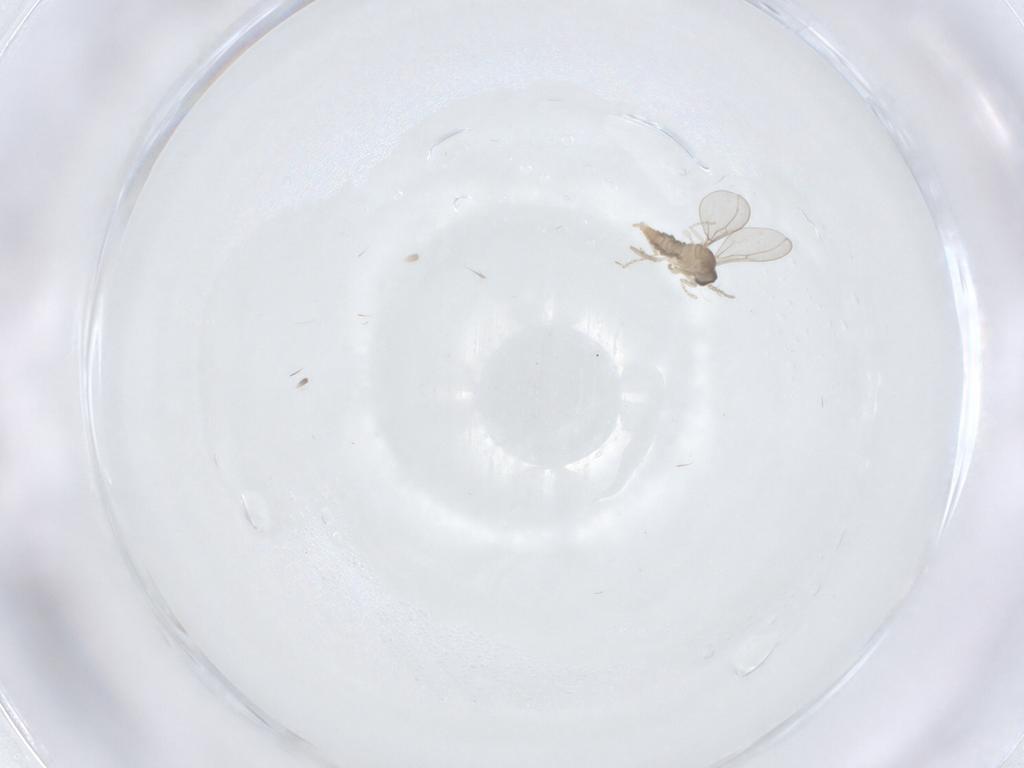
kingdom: Animalia
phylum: Arthropoda
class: Insecta
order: Diptera
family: Cecidomyiidae
